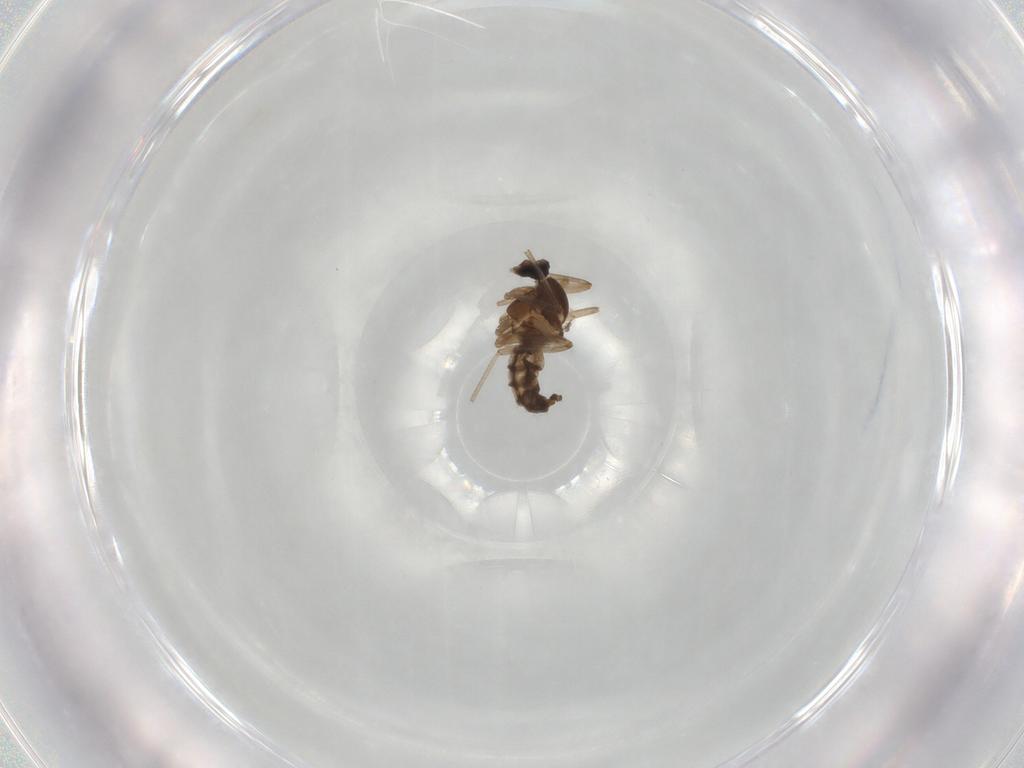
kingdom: Animalia
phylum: Arthropoda
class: Insecta
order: Diptera
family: Cecidomyiidae
